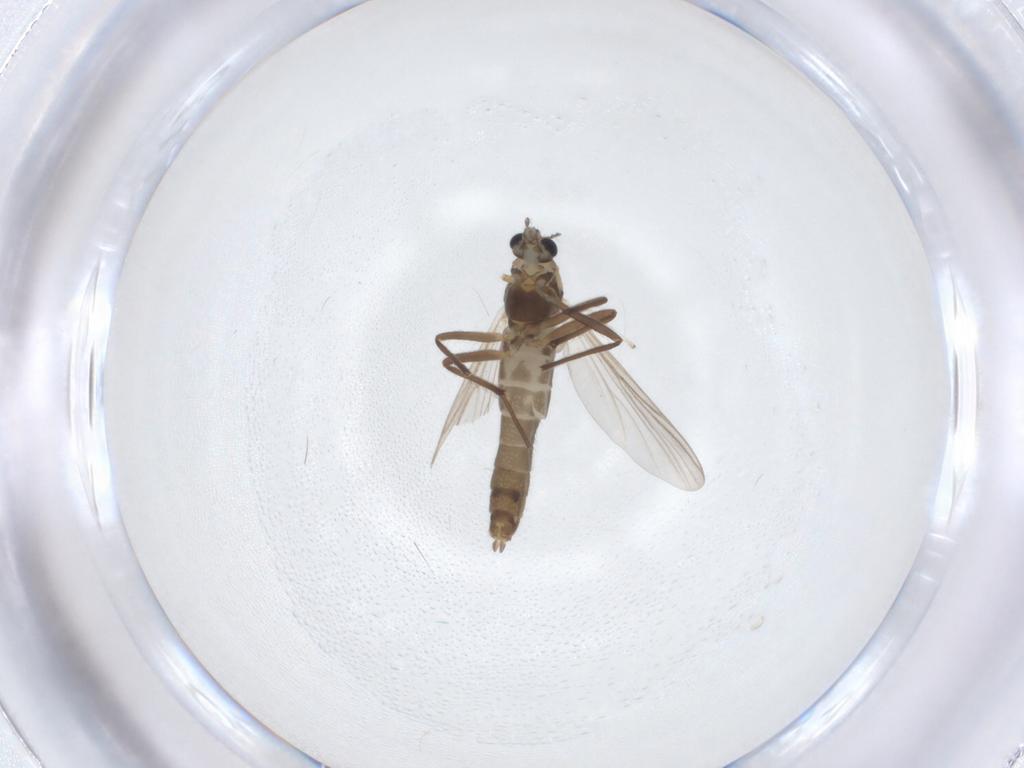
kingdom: Animalia
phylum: Arthropoda
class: Insecta
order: Diptera
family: Chironomidae
